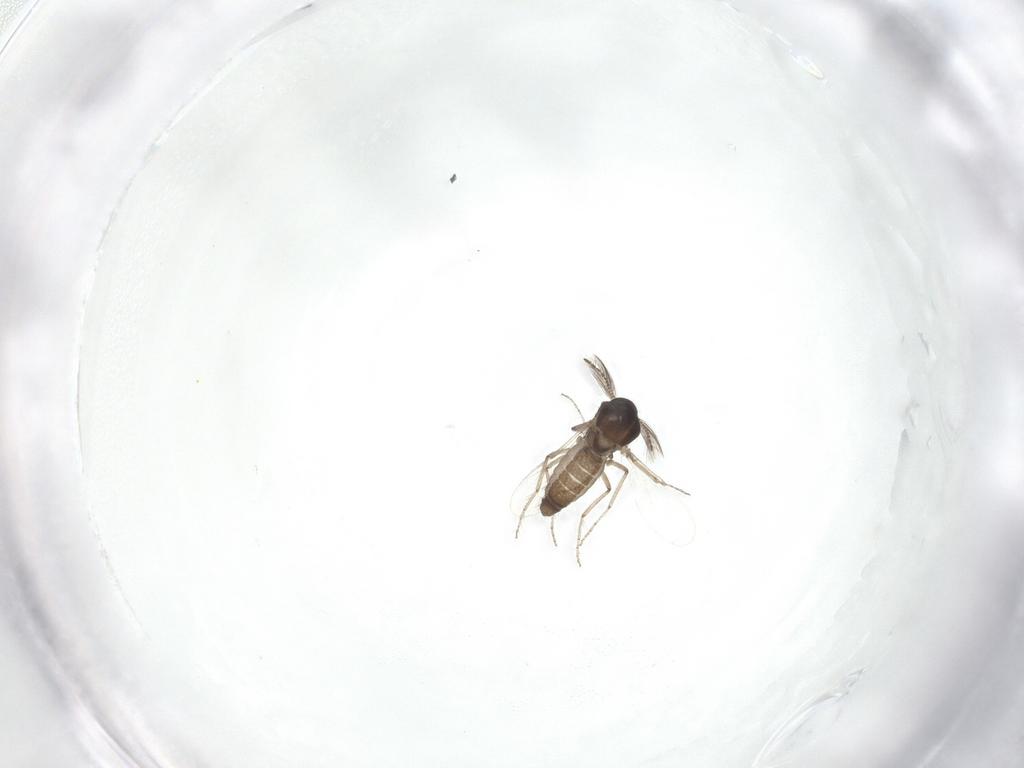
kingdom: Animalia
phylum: Arthropoda
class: Insecta
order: Diptera
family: Ceratopogonidae
